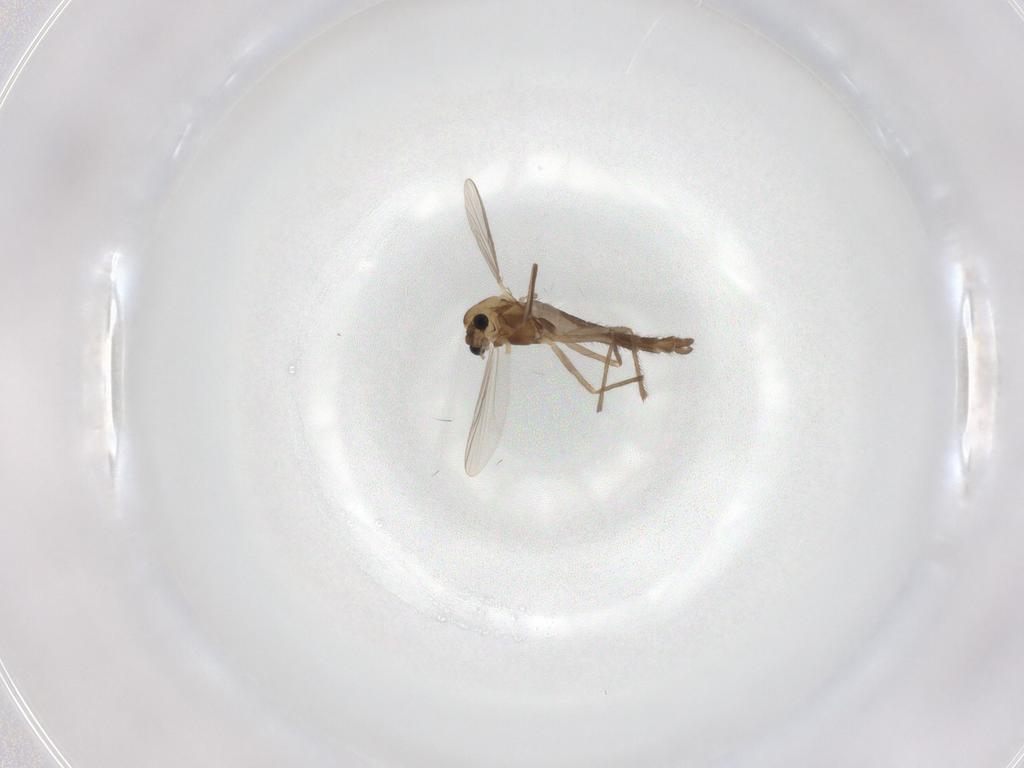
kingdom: Animalia
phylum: Arthropoda
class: Insecta
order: Diptera
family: Chironomidae
